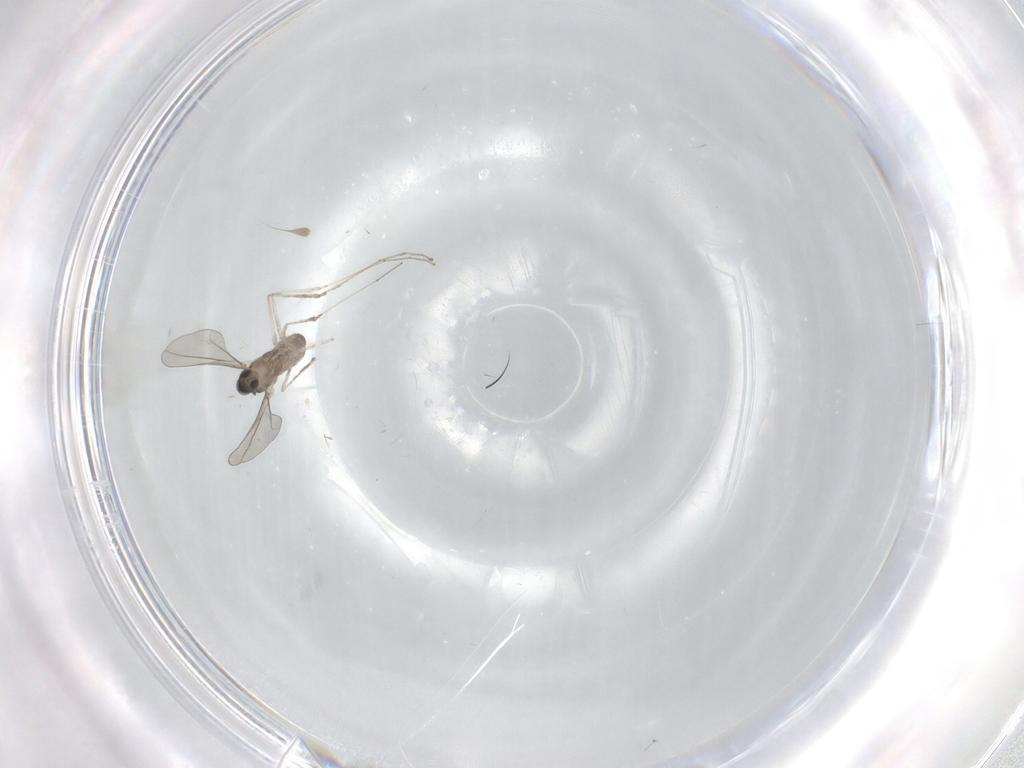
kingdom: Animalia
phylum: Arthropoda
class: Insecta
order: Diptera
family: Cecidomyiidae
